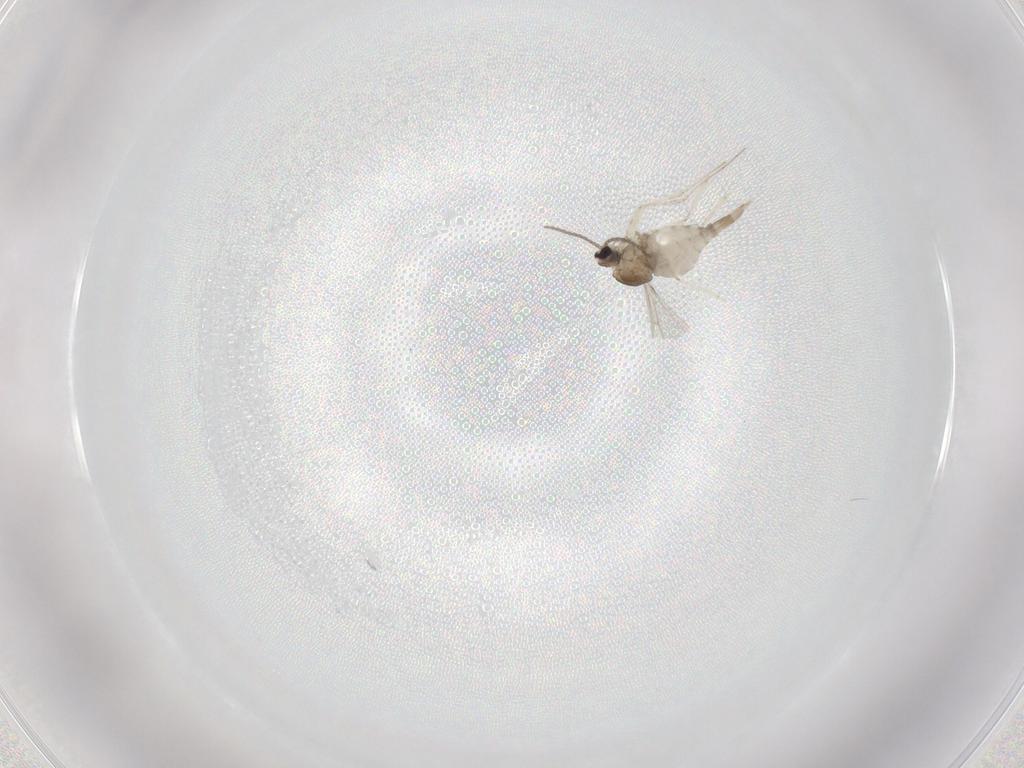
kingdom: Animalia
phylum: Arthropoda
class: Insecta
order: Diptera
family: Cecidomyiidae
